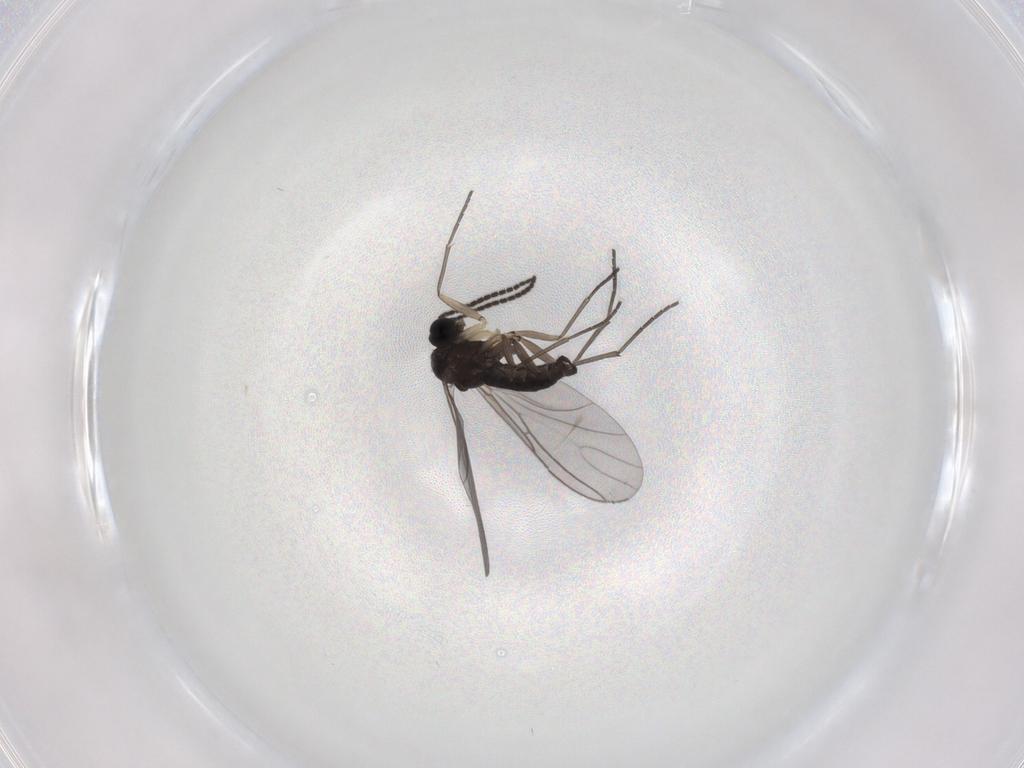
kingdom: Animalia
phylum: Arthropoda
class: Insecta
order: Diptera
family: Sciaridae
